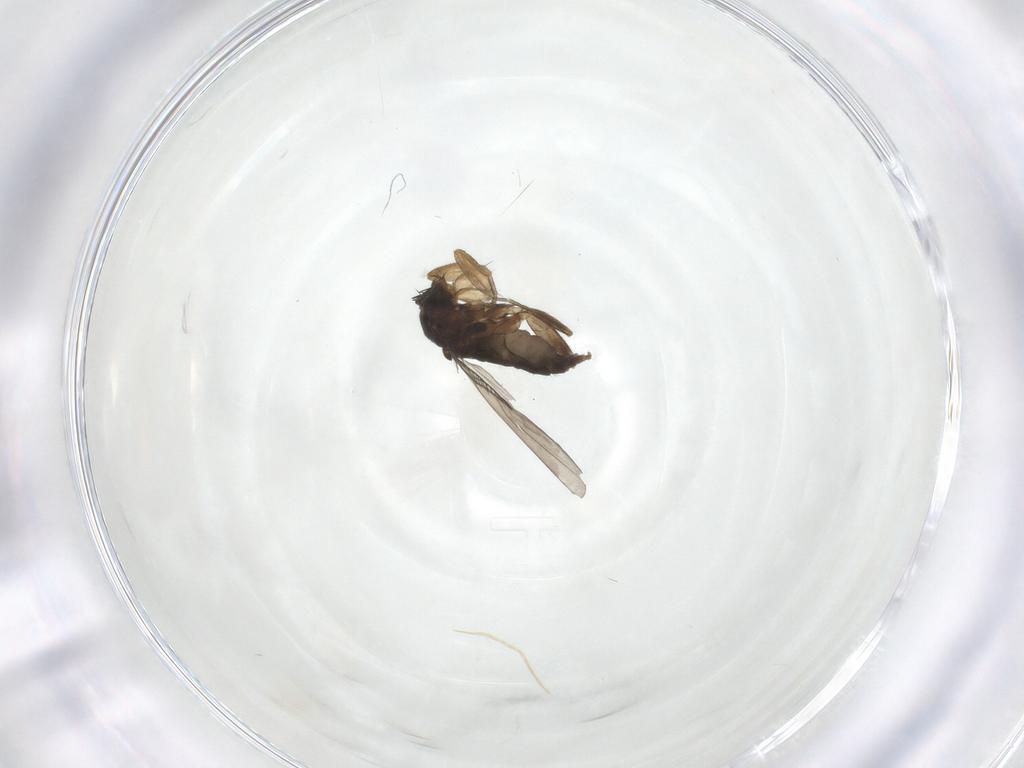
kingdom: Animalia
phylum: Arthropoda
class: Insecta
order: Diptera
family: Phoridae
